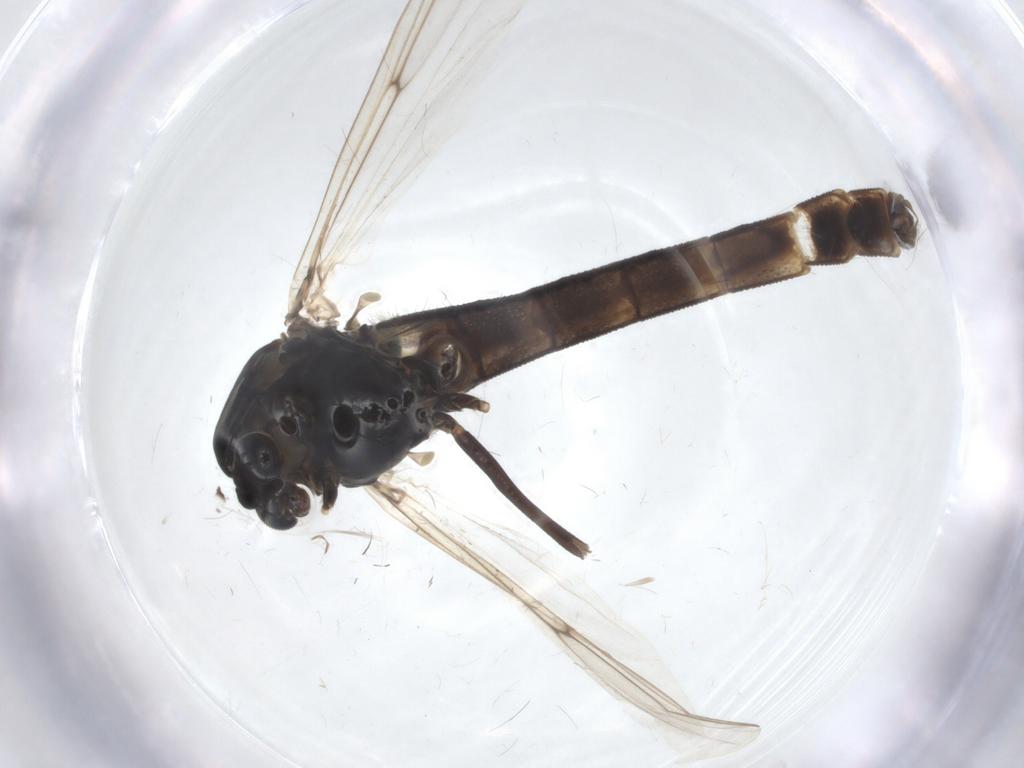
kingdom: Animalia
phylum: Arthropoda
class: Insecta
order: Diptera
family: Chironomidae
